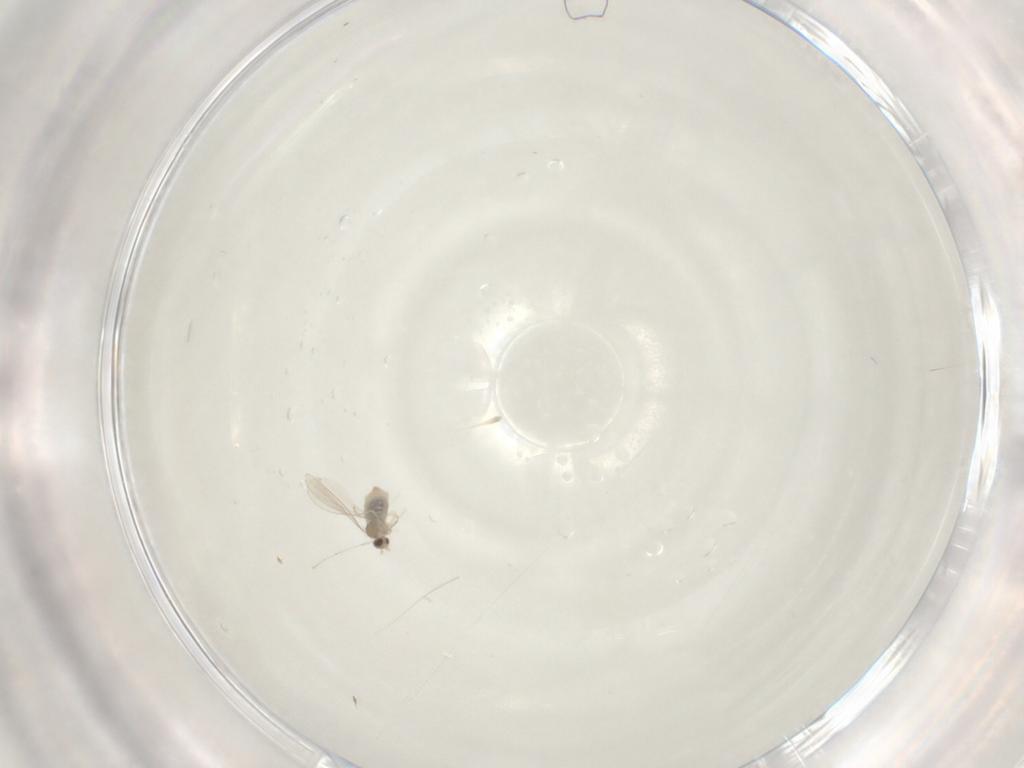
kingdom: Animalia
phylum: Arthropoda
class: Insecta
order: Diptera
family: Cecidomyiidae
